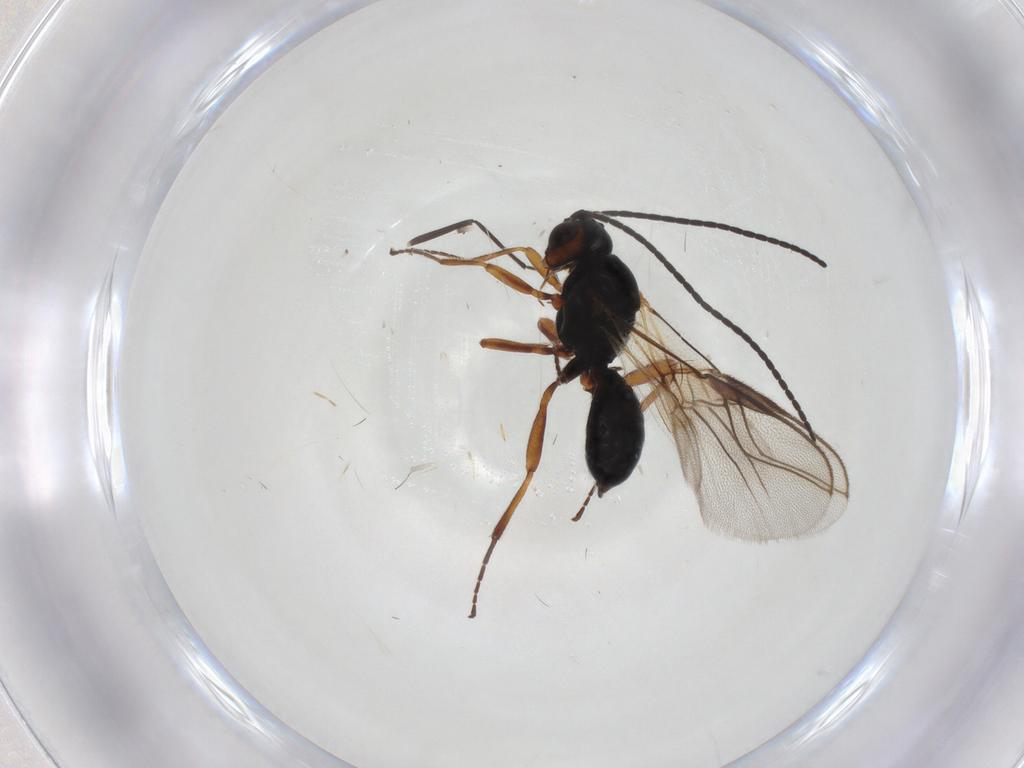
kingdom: Animalia
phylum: Arthropoda
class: Insecta
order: Hymenoptera
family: Braconidae
